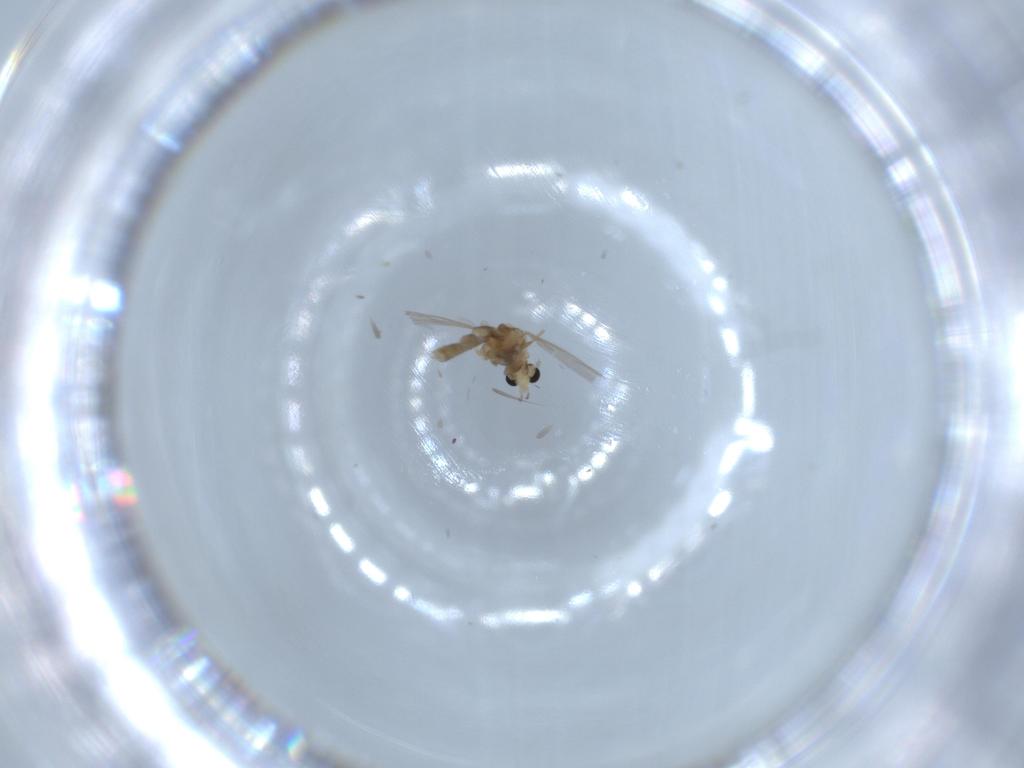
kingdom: Animalia
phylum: Arthropoda
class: Insecta
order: Diptera
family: Chironomidae
